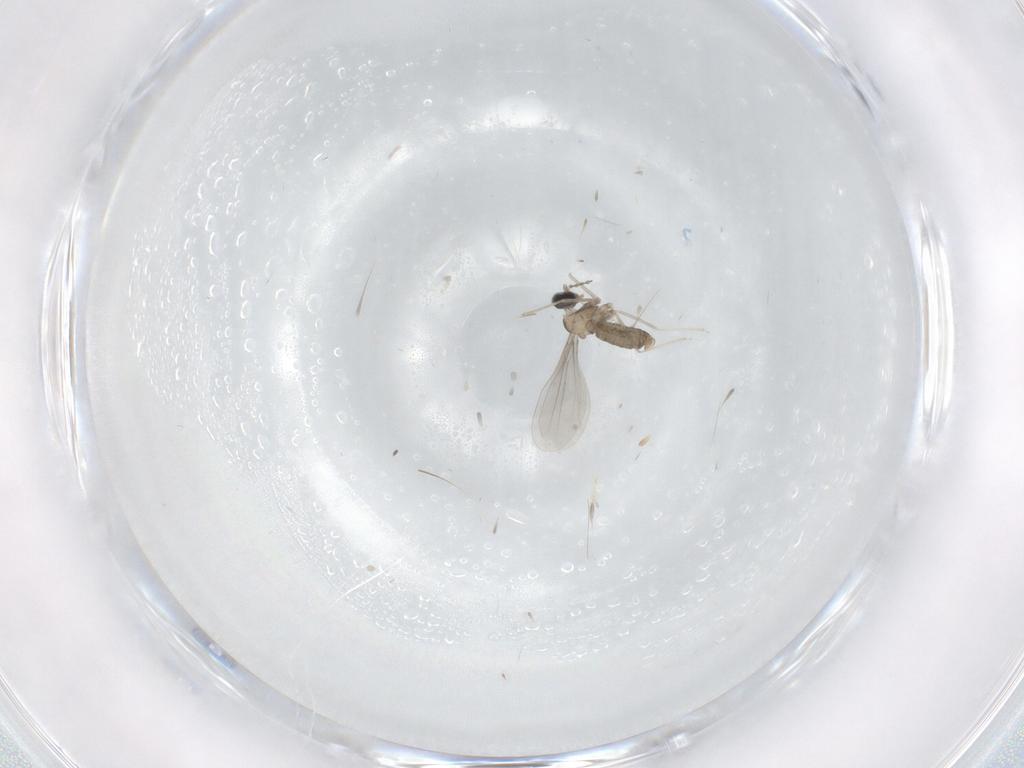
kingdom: Animalia
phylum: Arthropoda
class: Insecta
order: Diptera
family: Cecidomyiidae
